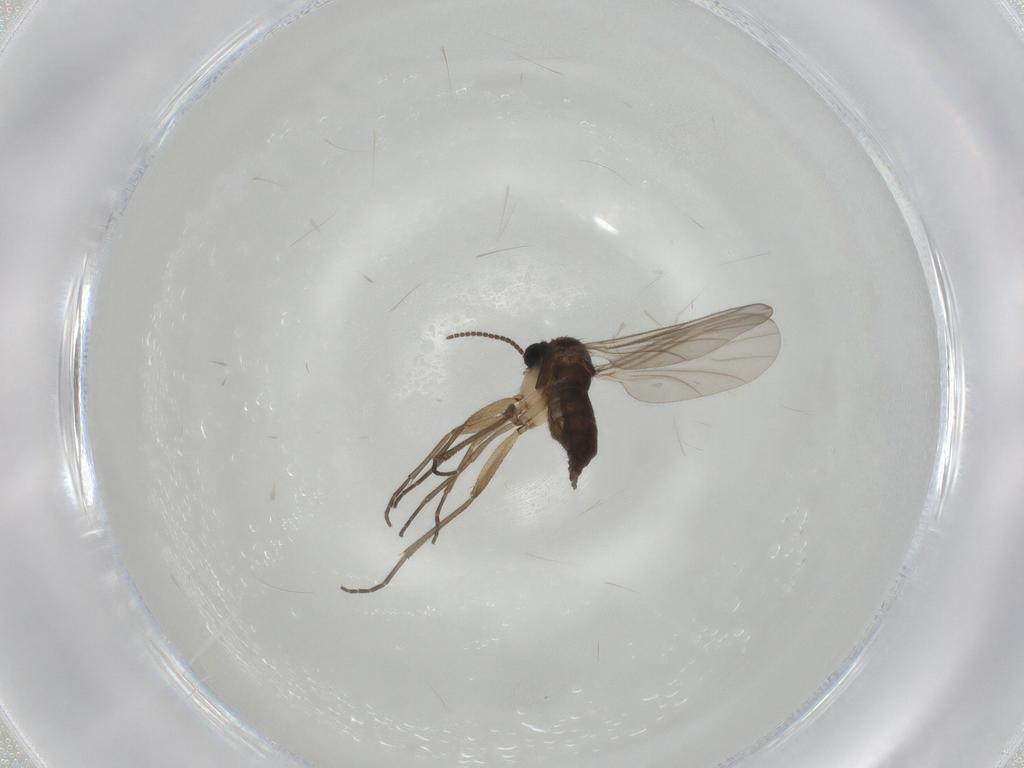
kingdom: Animalia
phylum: Arthropoda
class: Insecta
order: Diptera
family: Sciaridae
